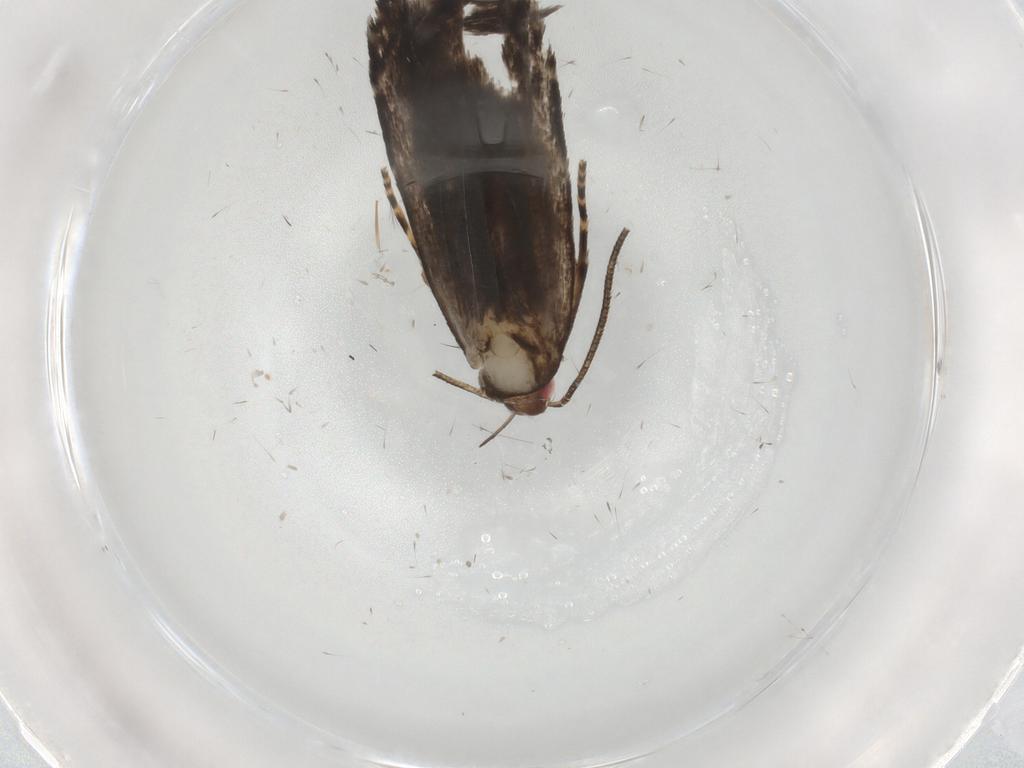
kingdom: Animalia
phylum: Arthropoda
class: Insecta
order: Lepidoptera
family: Gelechiidae
